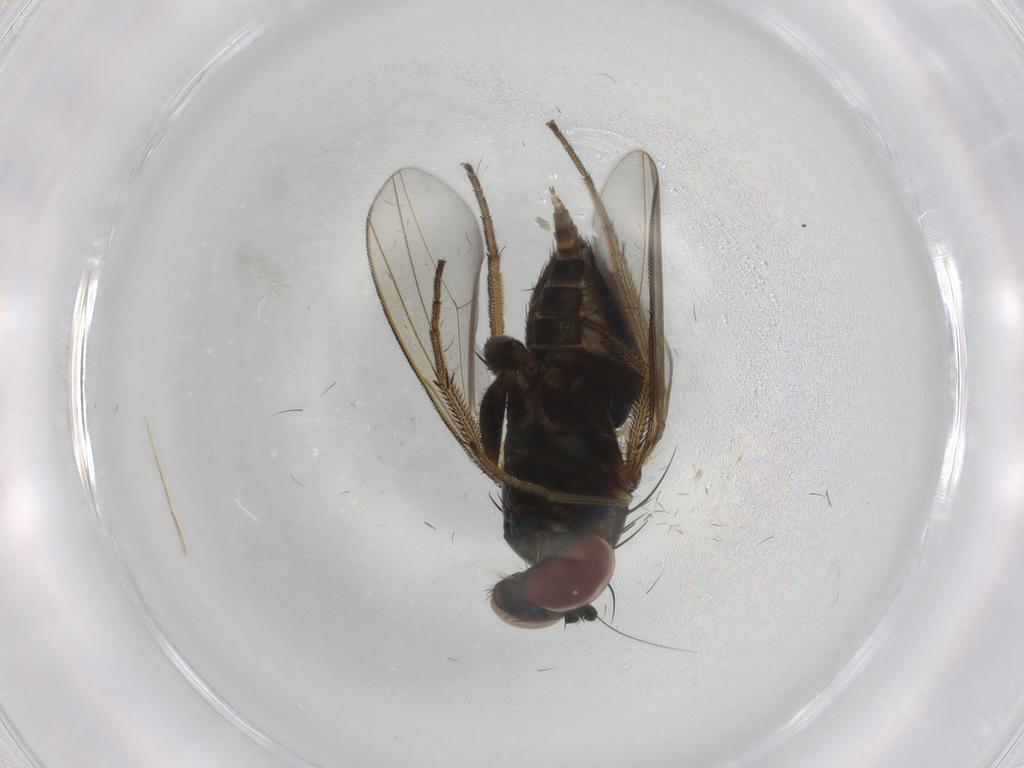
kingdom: Animalia
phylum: Arthropoda
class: Insecta
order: Diptera
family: Dolichopodidae
